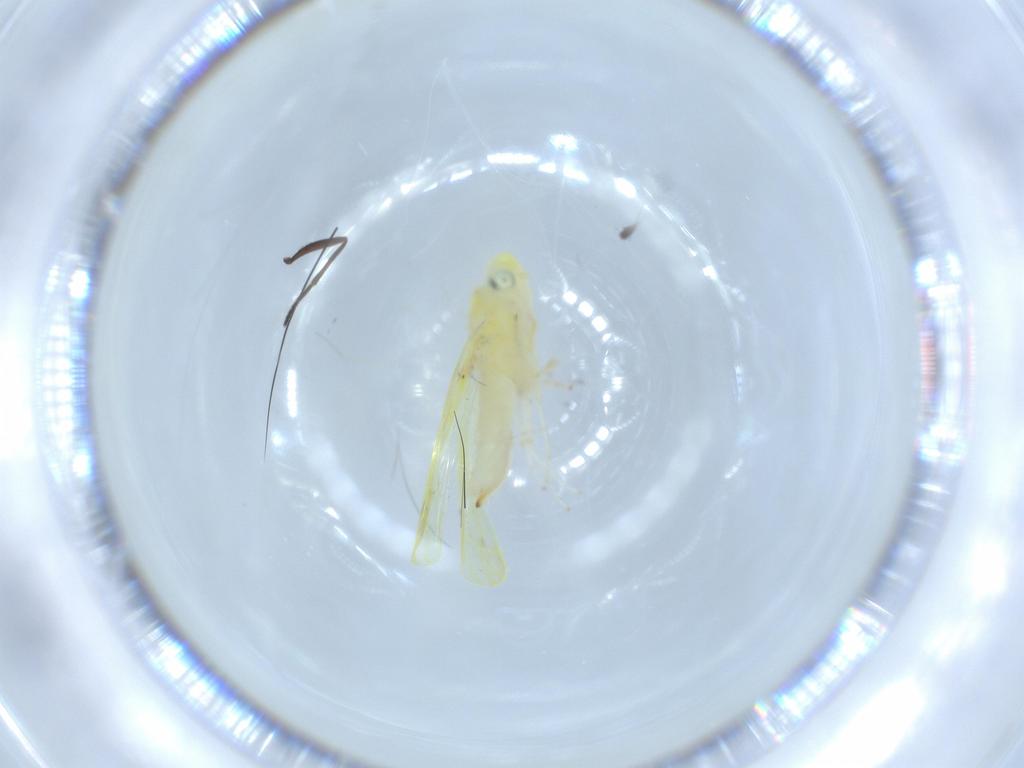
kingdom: Animalia
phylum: Arthropoda
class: Insecta
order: Hemiptera
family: Cicadellidae
